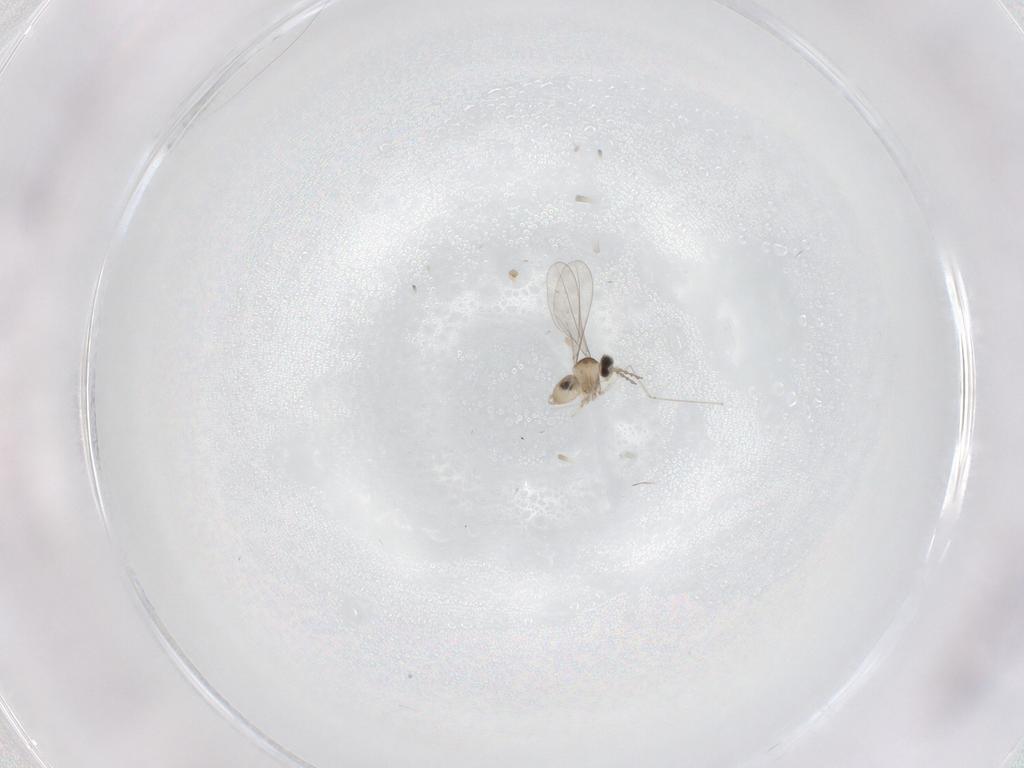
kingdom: Animalia
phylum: Arthropoda
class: Insecta
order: Diptera
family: Cecidomyiidae
